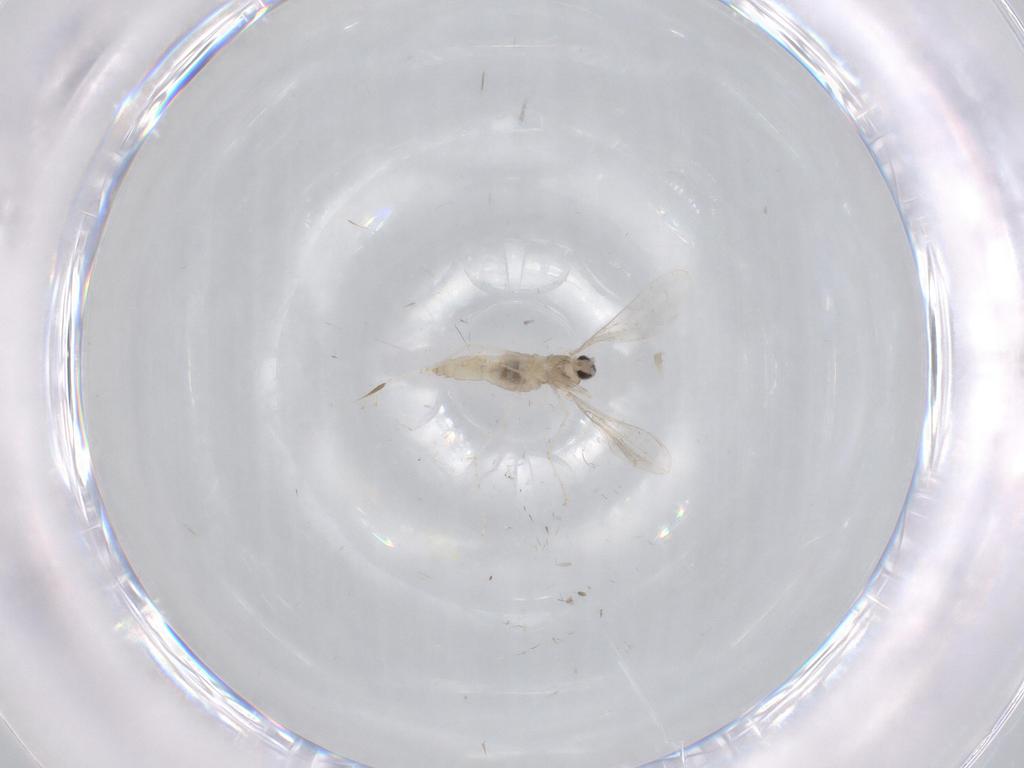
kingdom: Animalia
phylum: Arthropoda
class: Insecta
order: Diptera
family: Cecidomyiidae
